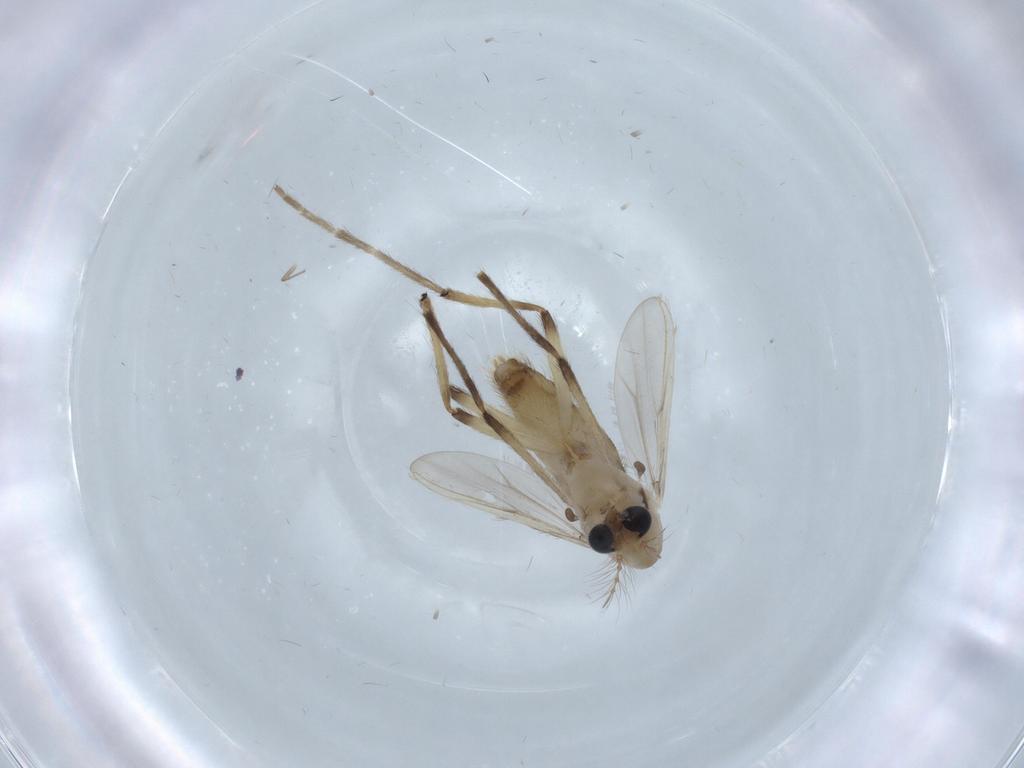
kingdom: Animalia
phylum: Arthropoda
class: Insecta
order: Diptera
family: Chironomidae
